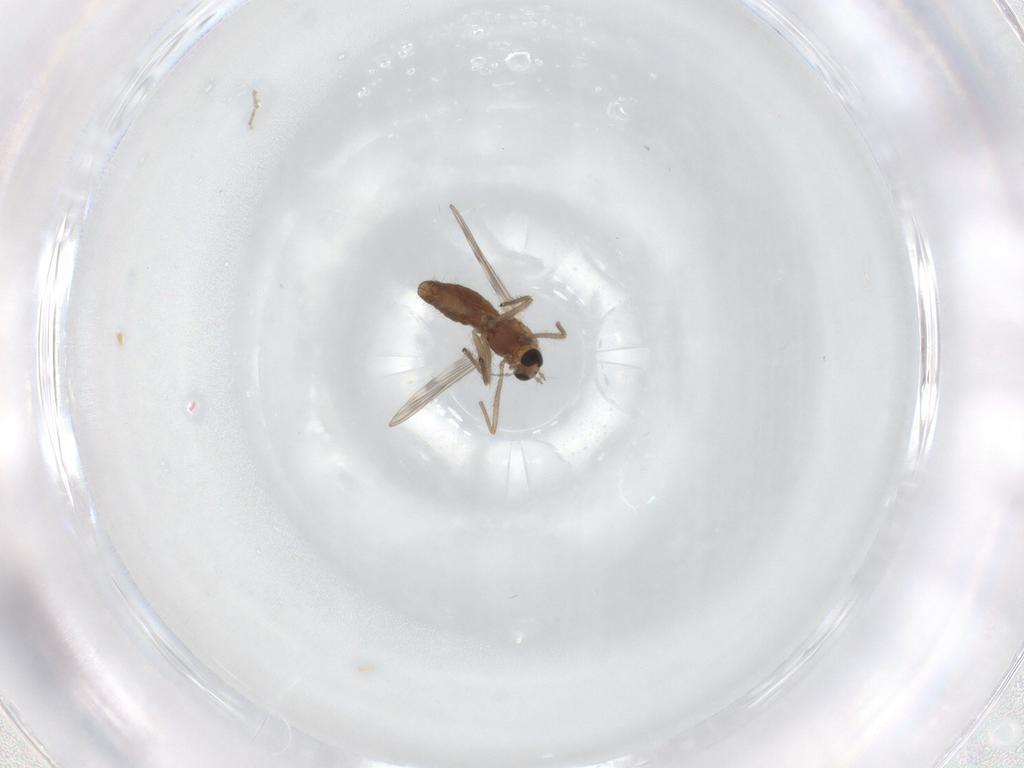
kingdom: Animalia
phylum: Arthropoda
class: Insecta
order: Diptera
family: Chironomidae
